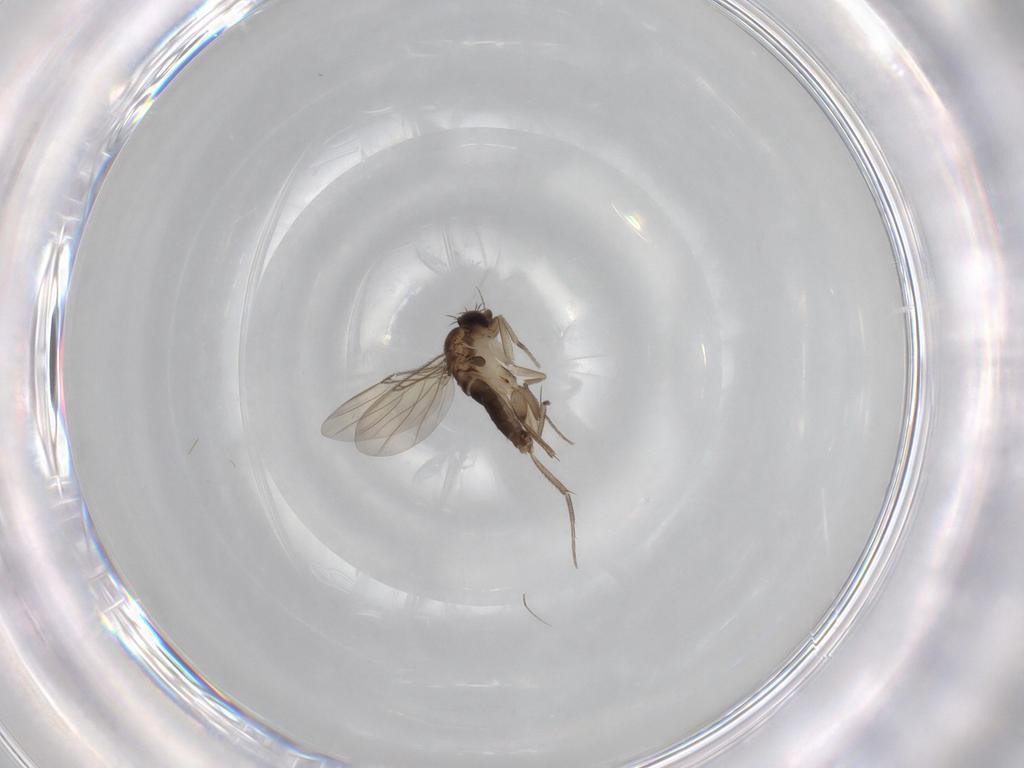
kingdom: Animalia
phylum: Arthropoda
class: Insecta
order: Diptera
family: Phoridae
